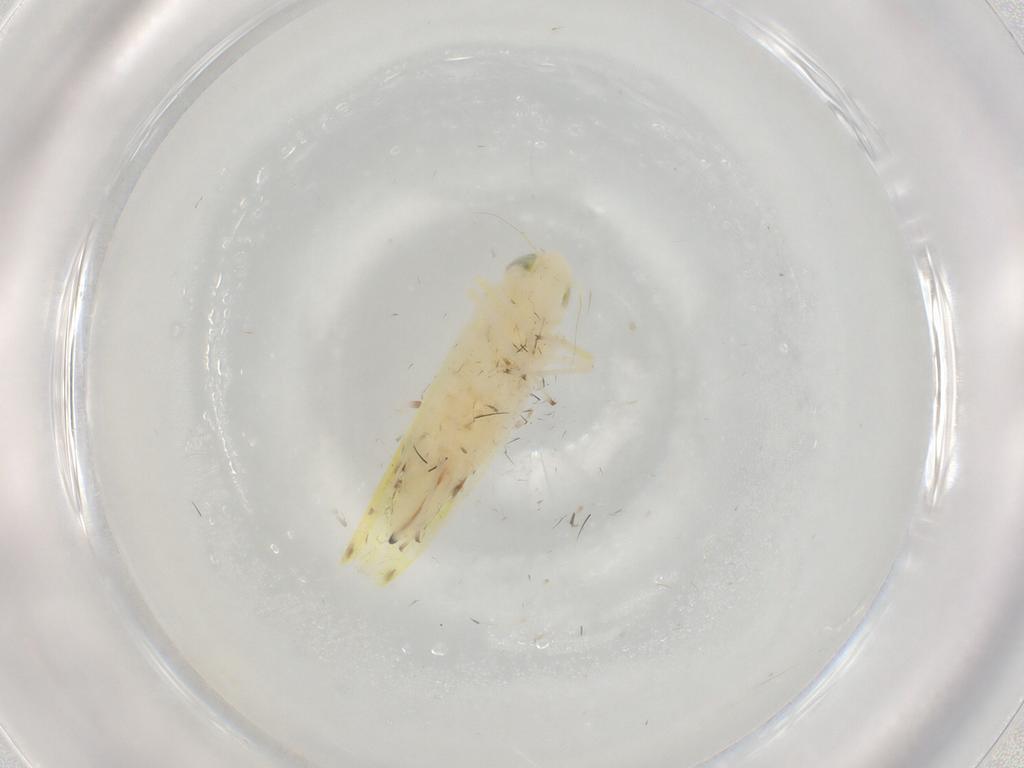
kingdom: Animalia
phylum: Arthropoda
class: Insecta
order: Hemiptera
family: Cicadellidae
